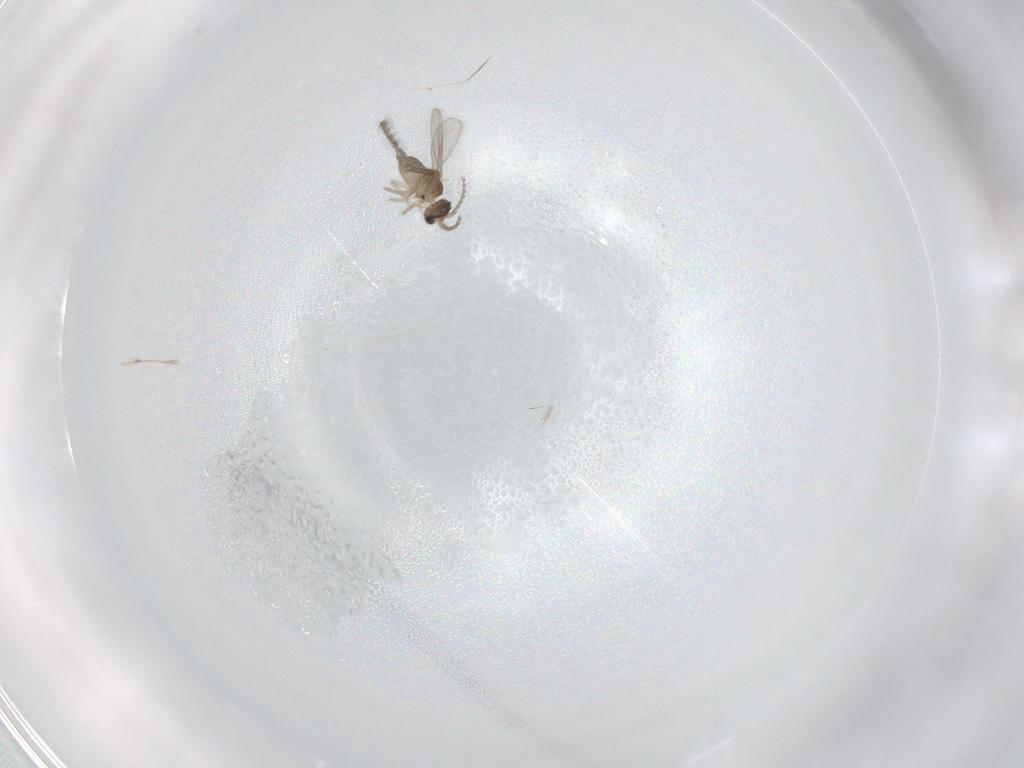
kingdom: Animalia
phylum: Arthropoda
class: Insecta
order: Diptera
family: Cecidomyiidae
